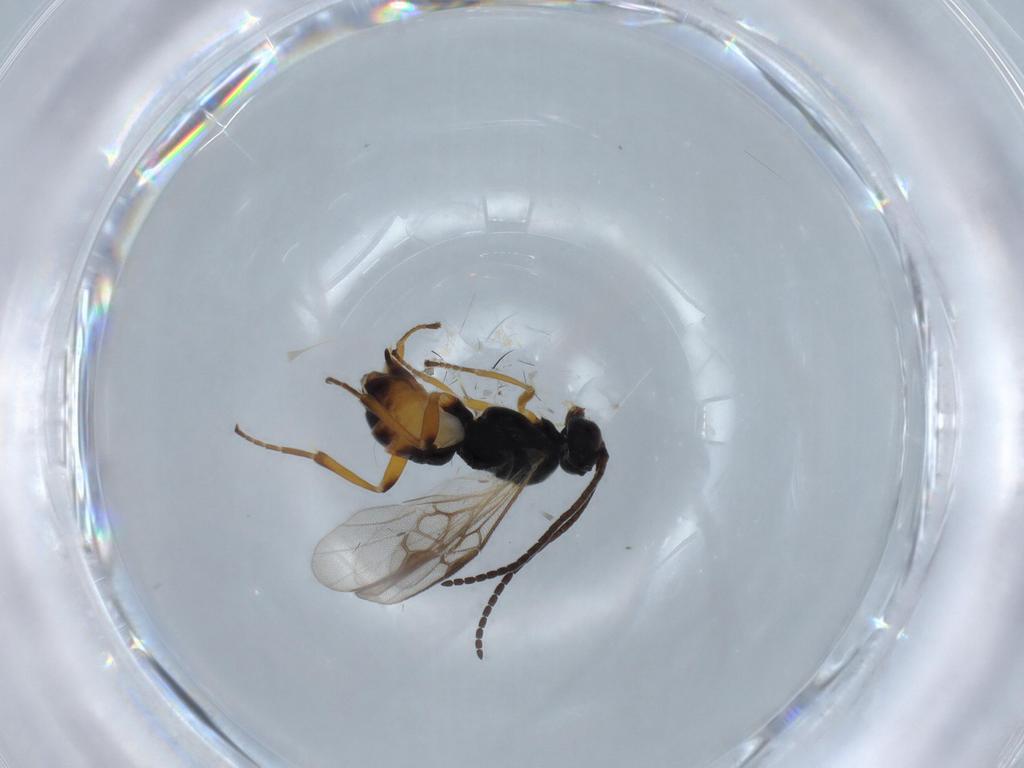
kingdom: Animalia
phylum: Arthropoda
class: Insecta
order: Hymenoptera
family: Braconidae
